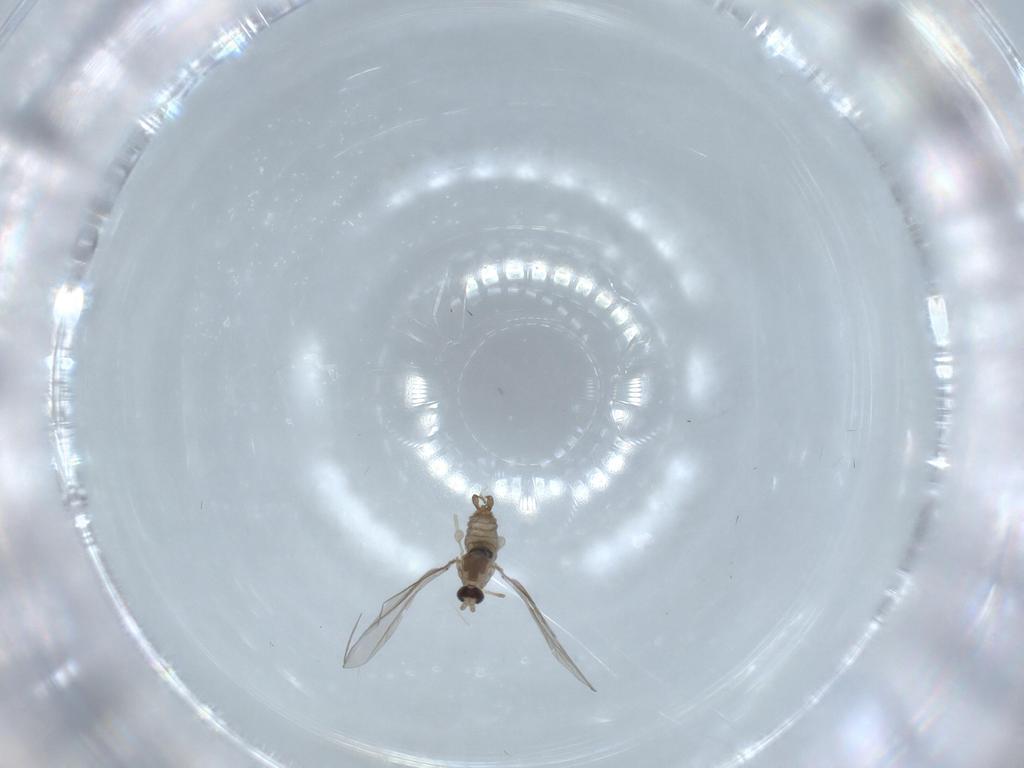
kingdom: Animalia
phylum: Arthropoda
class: Insecta
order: Diptera
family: Cecidomyiidae
